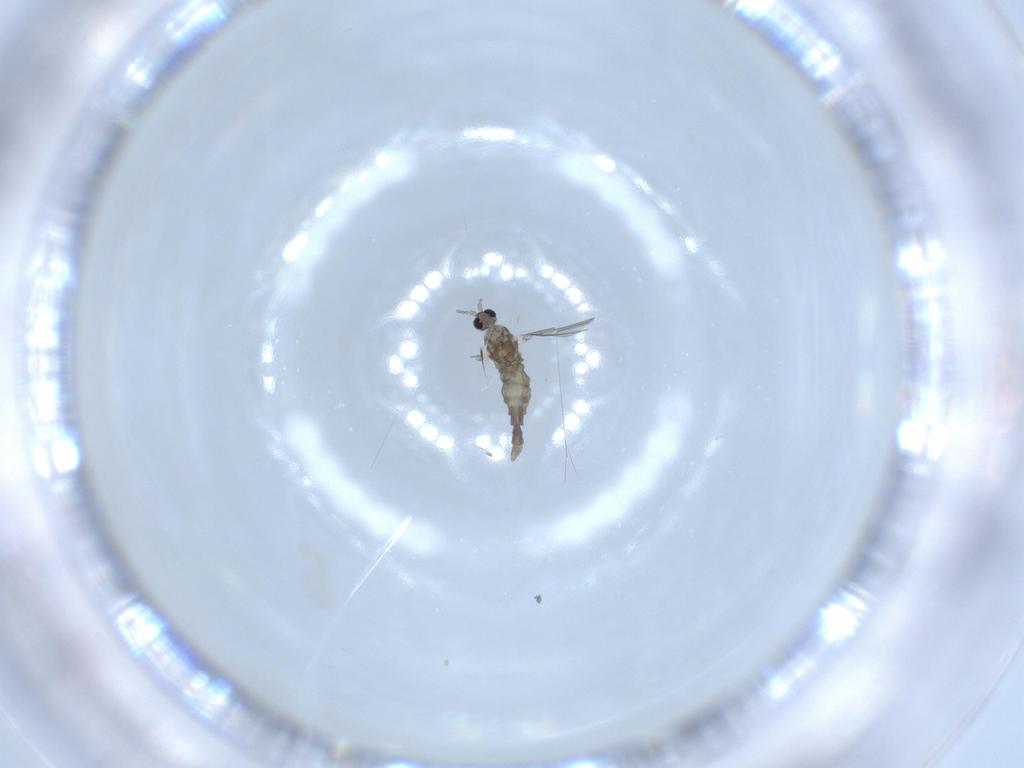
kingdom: Animalia
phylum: Arthropoda
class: Insecta
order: Diptera
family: Cecidomyiidae
